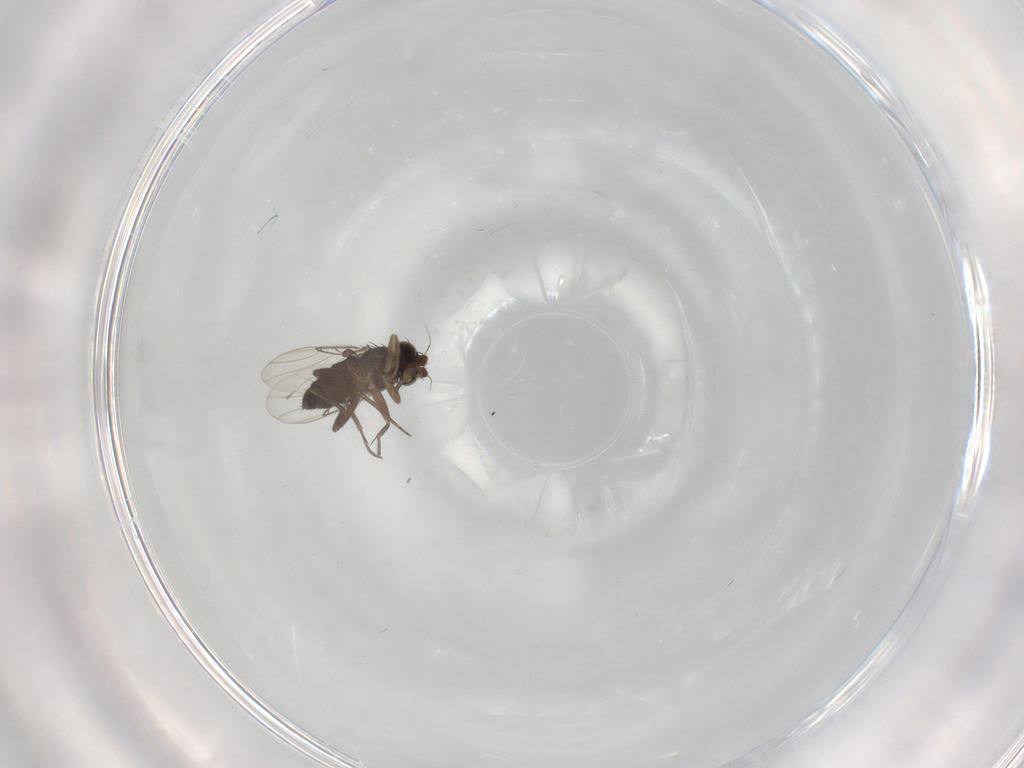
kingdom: Animalia
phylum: Arthropoda
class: Insecta
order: Diptera
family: Phoridae
